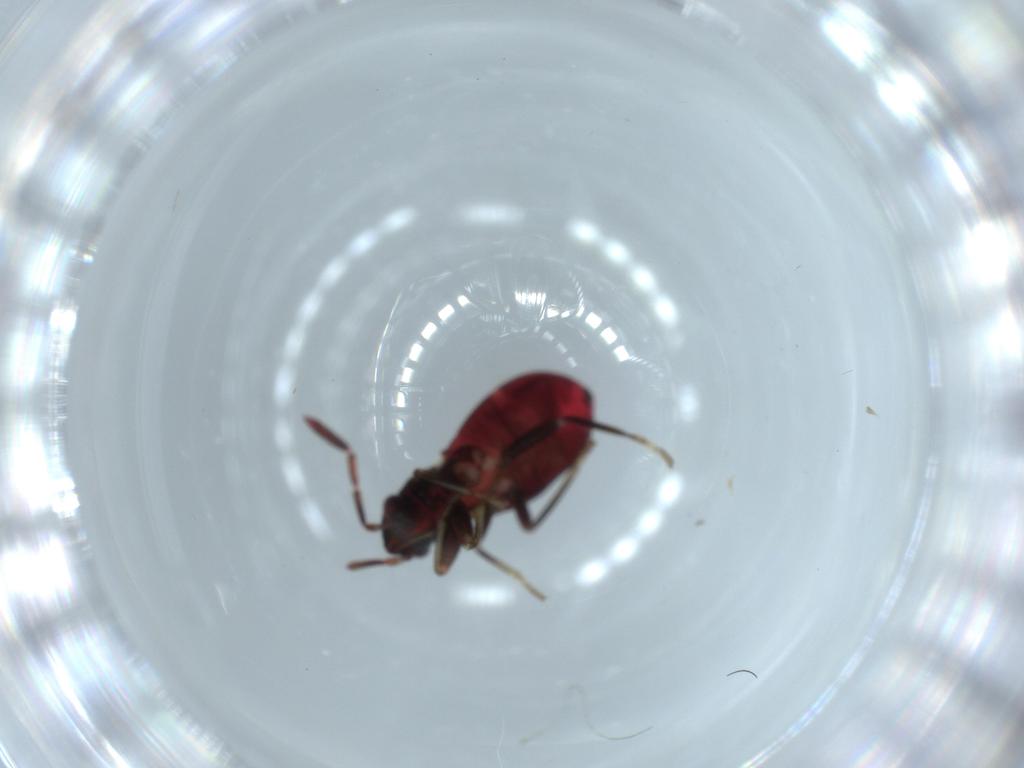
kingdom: Animalia
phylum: Arthropoda
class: Insecta
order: Hemiptera
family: Rhyparochromidae
